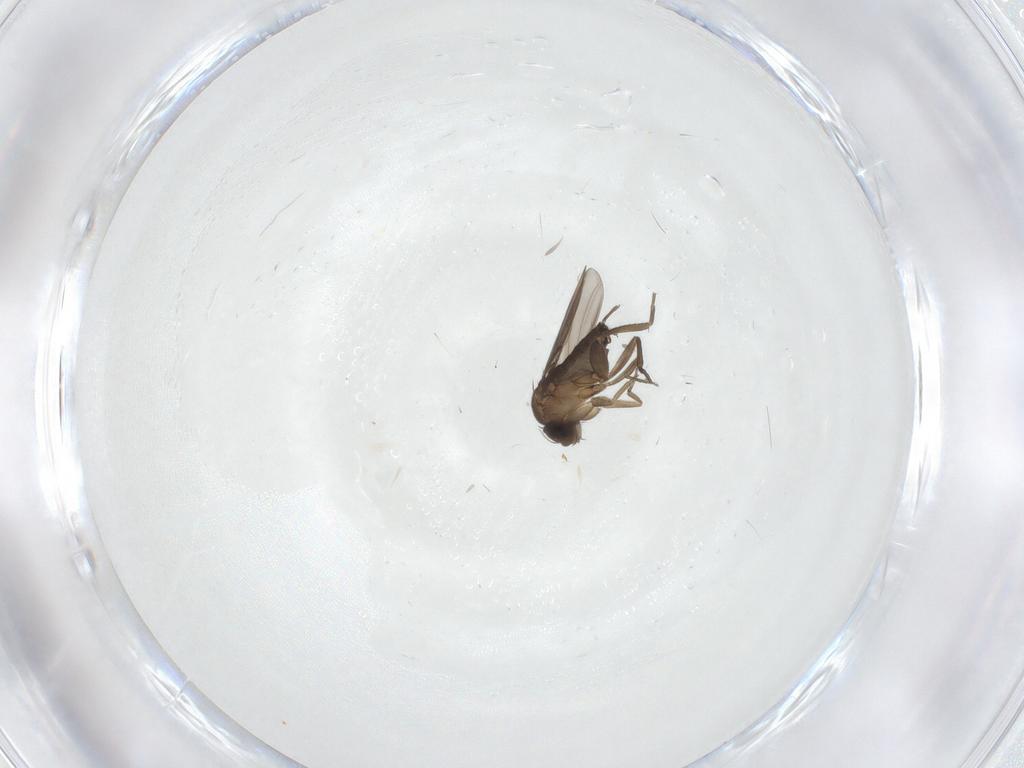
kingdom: Animalia
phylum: Arthropoda
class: Insecta
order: Diptera
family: Phoridae
